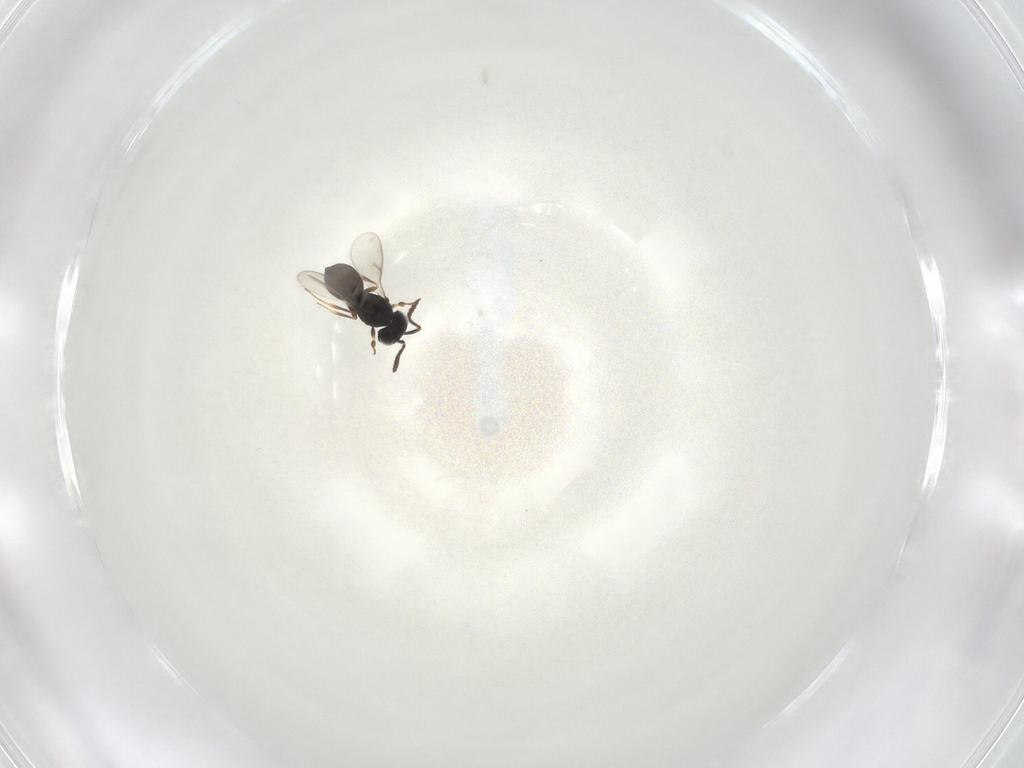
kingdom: Animalia
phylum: Arthropoda
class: Insecta
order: Hymenoptera
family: Scelionidae
